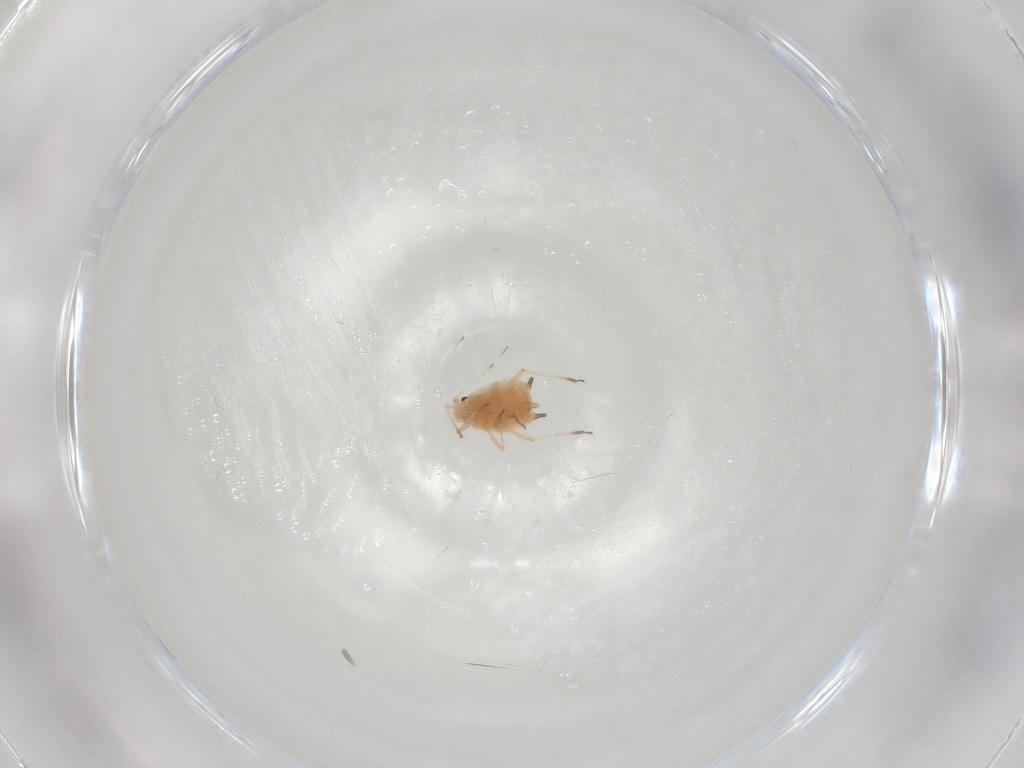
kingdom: Animalia
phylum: Arthropoda
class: Insecta
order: Hemiptera
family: Aphididae
